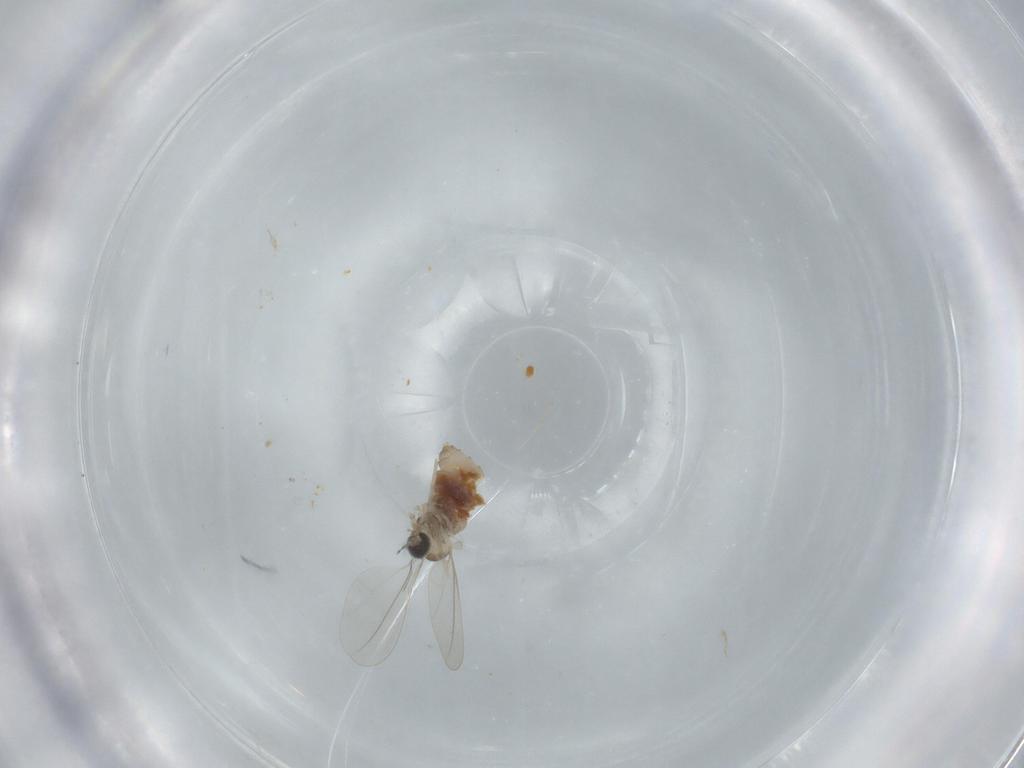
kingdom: Animalia
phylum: Arthropoda
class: Insecta
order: Diptera
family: Cecidomyiidae
